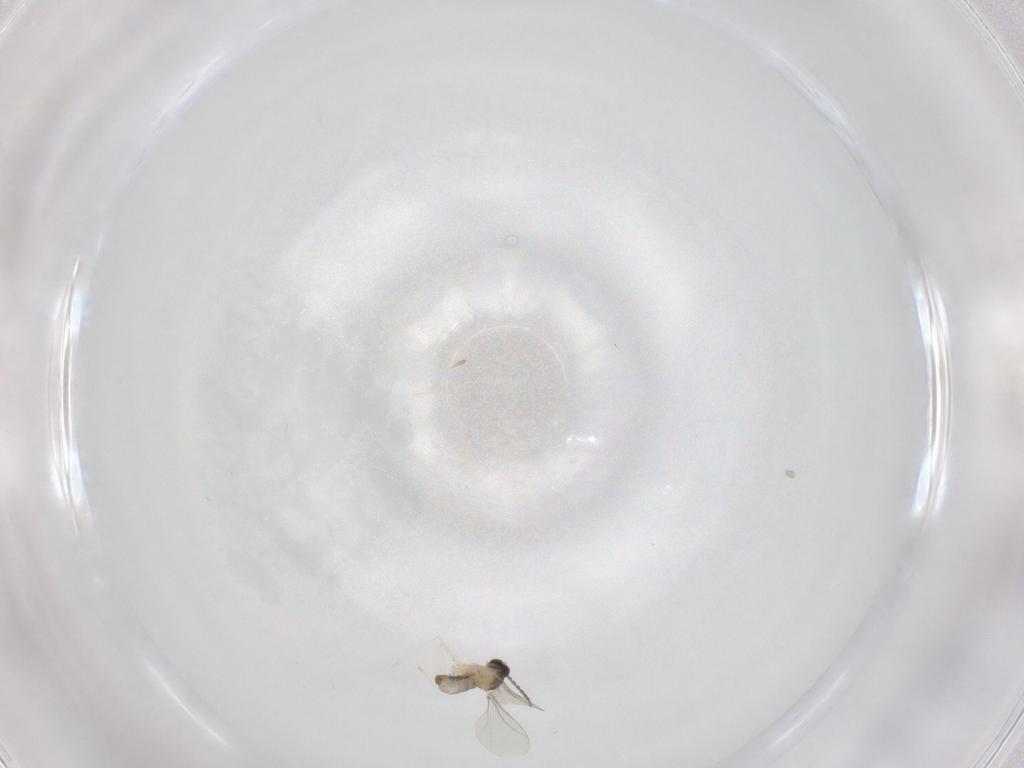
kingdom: Animalia
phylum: Arthropoda
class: Insecta
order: Diptera
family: Cecidomyiidae
